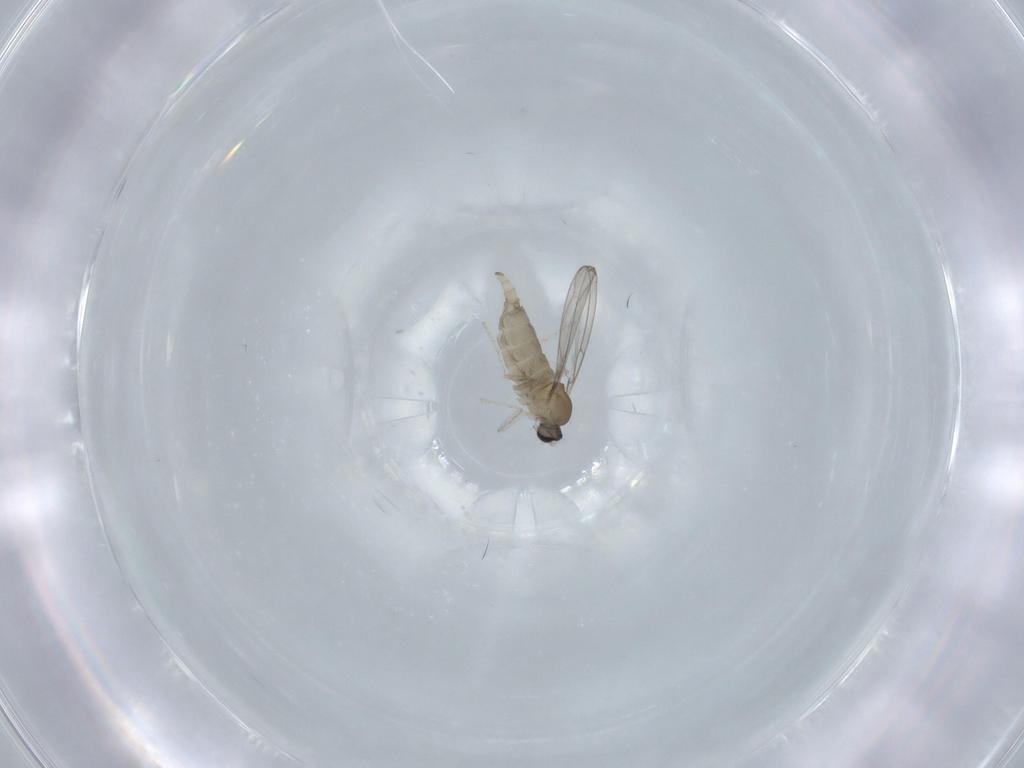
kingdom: Animalia
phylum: Arthropoda
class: Insecta
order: Diptera
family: Cecidomyiidae
